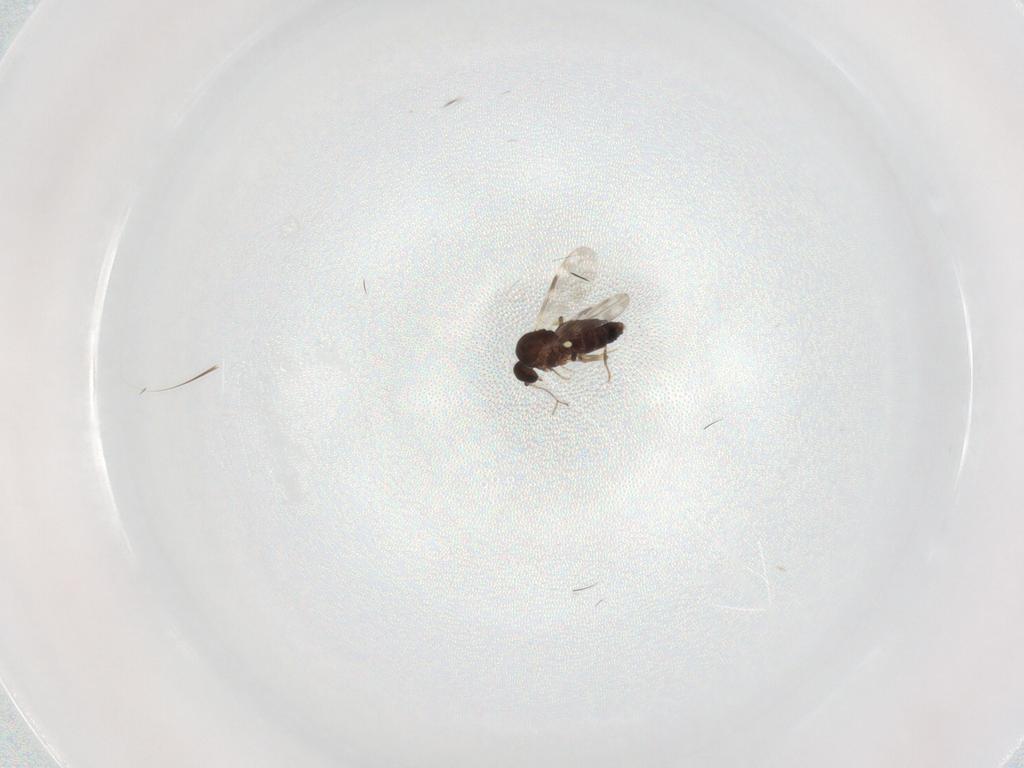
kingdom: Animalia
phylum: Arthropoda
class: Insecta
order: Diptera
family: Ceratopogonidae
